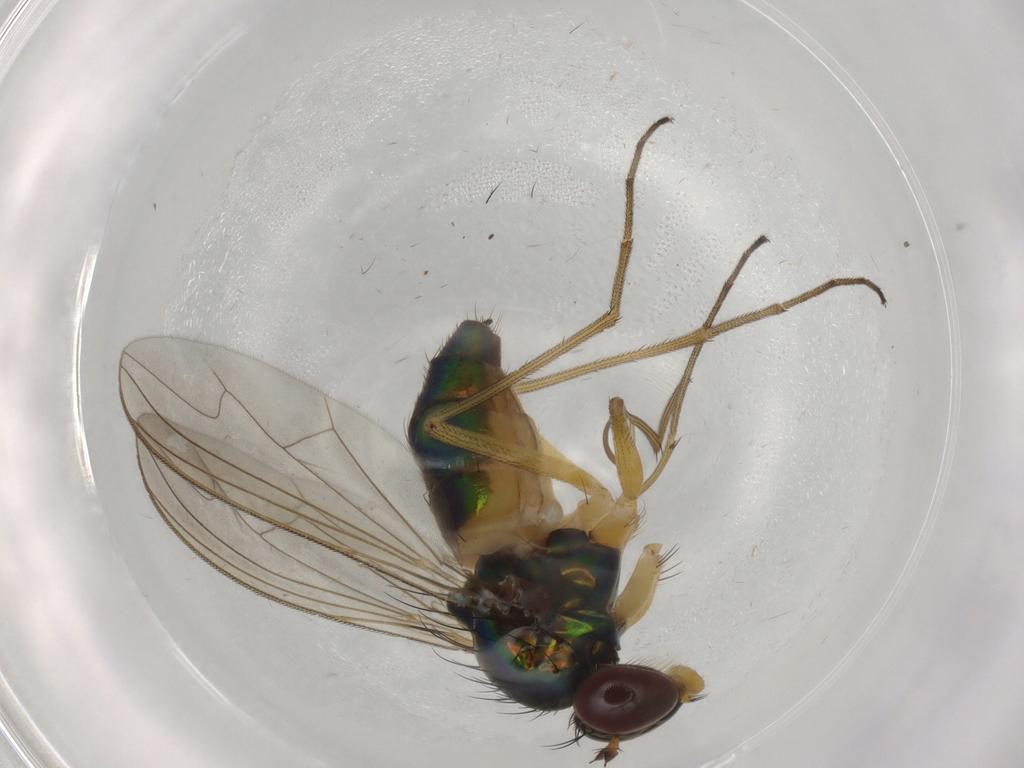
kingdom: Animalia
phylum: Arthropoda
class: Insecta
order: Diptera
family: Dolichopodidae
